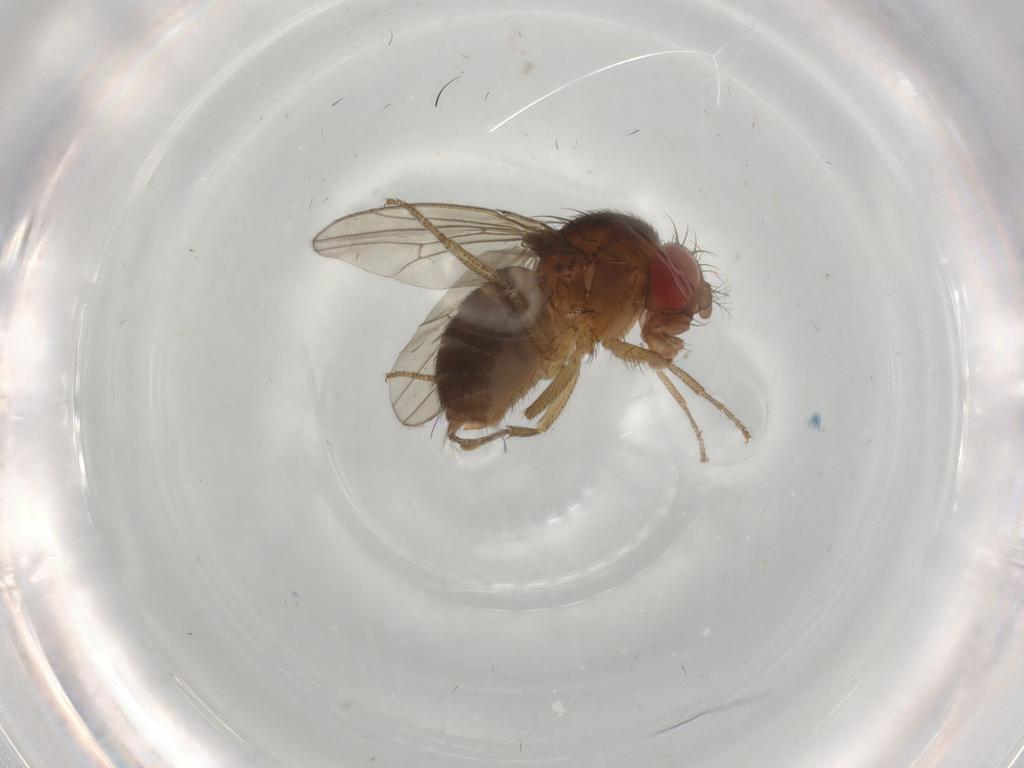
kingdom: Animalia
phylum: Arthropoda
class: Insecta
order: Diptera
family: Ceratopogonidae
